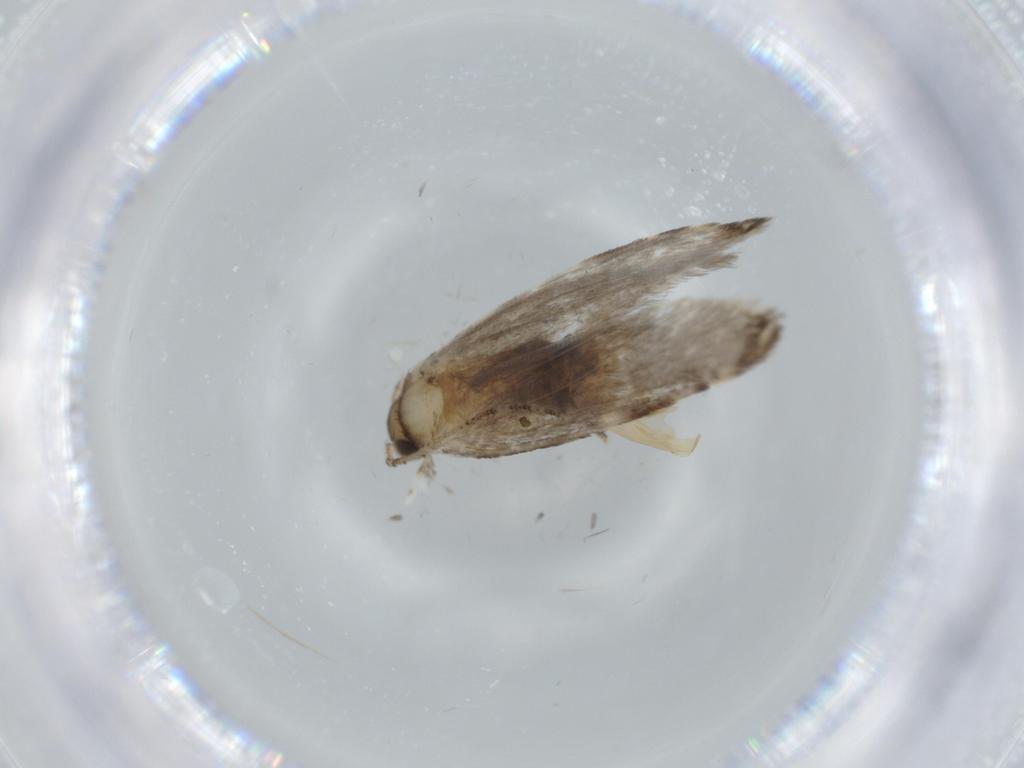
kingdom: Animalia
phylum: Arthropoda
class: Insecta
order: Lepidoptera
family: Tineidae
